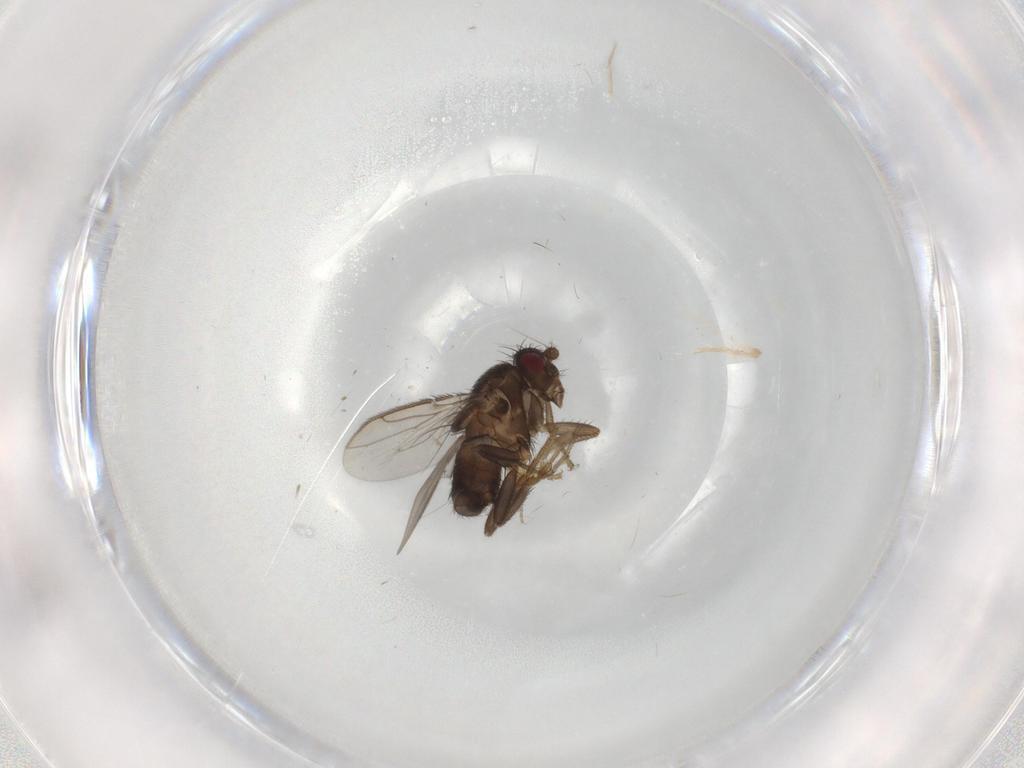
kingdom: Animalia
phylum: Arthropoda
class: Insecta
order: Diptera
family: Sphaeroceridae
